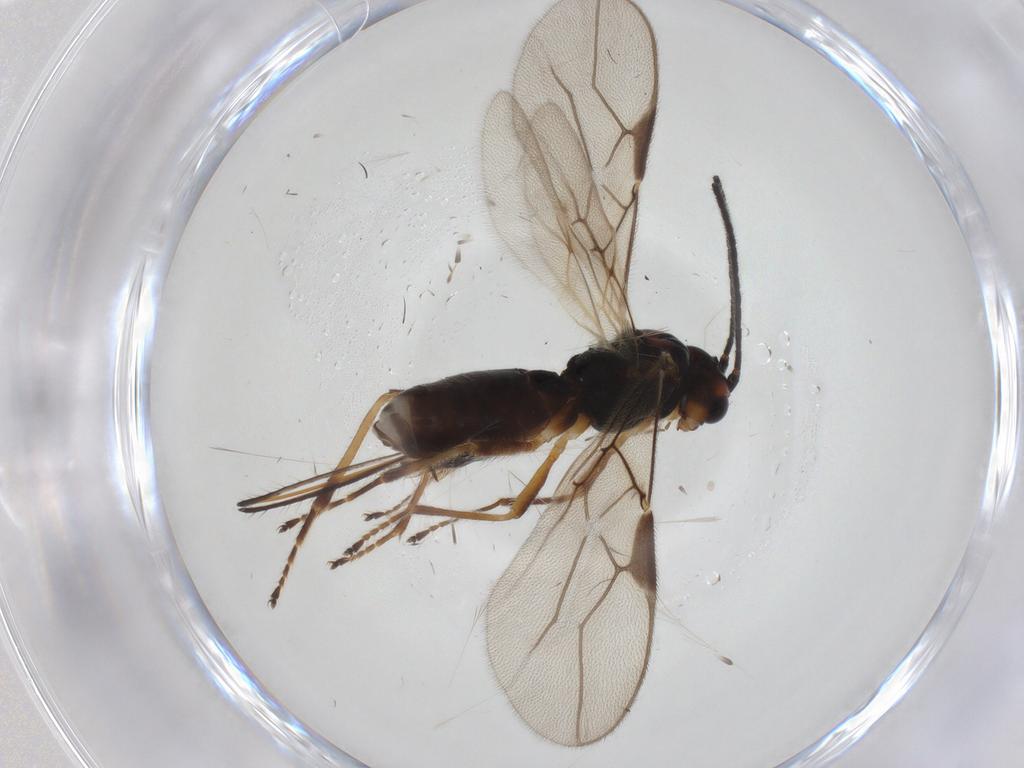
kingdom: Animalia
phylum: Arthropoda
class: Insecta
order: Hymenoptera
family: Braconidae
